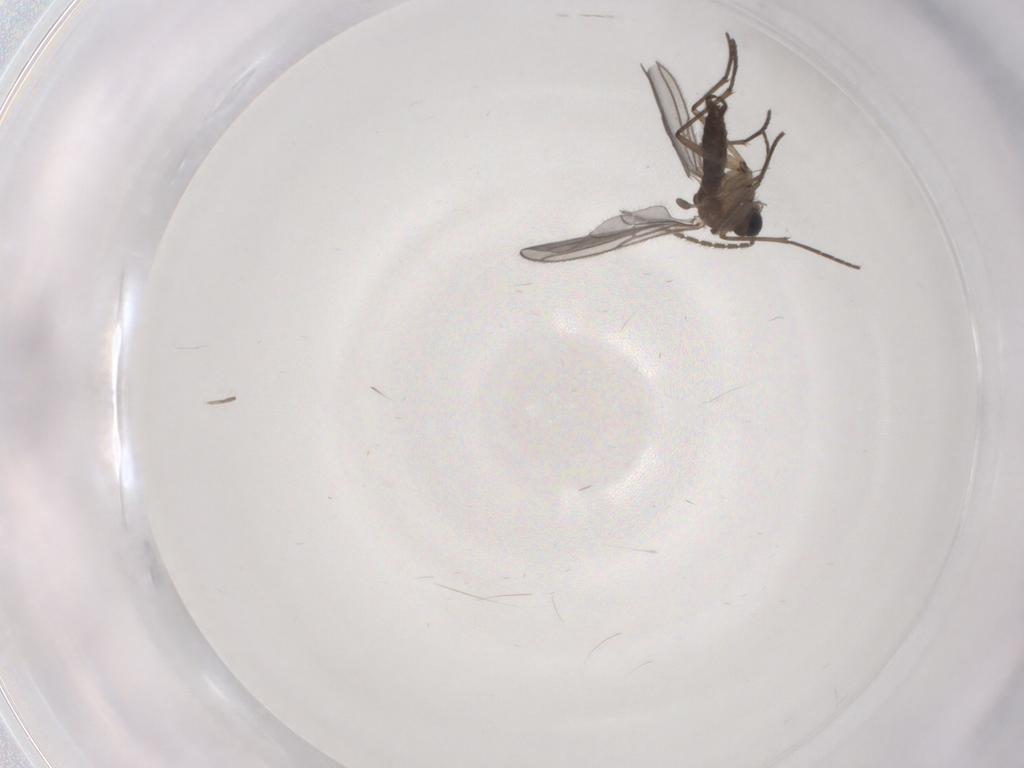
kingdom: Animalia
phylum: Arthropoda
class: Insecta
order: Diptera
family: Sciaridae
